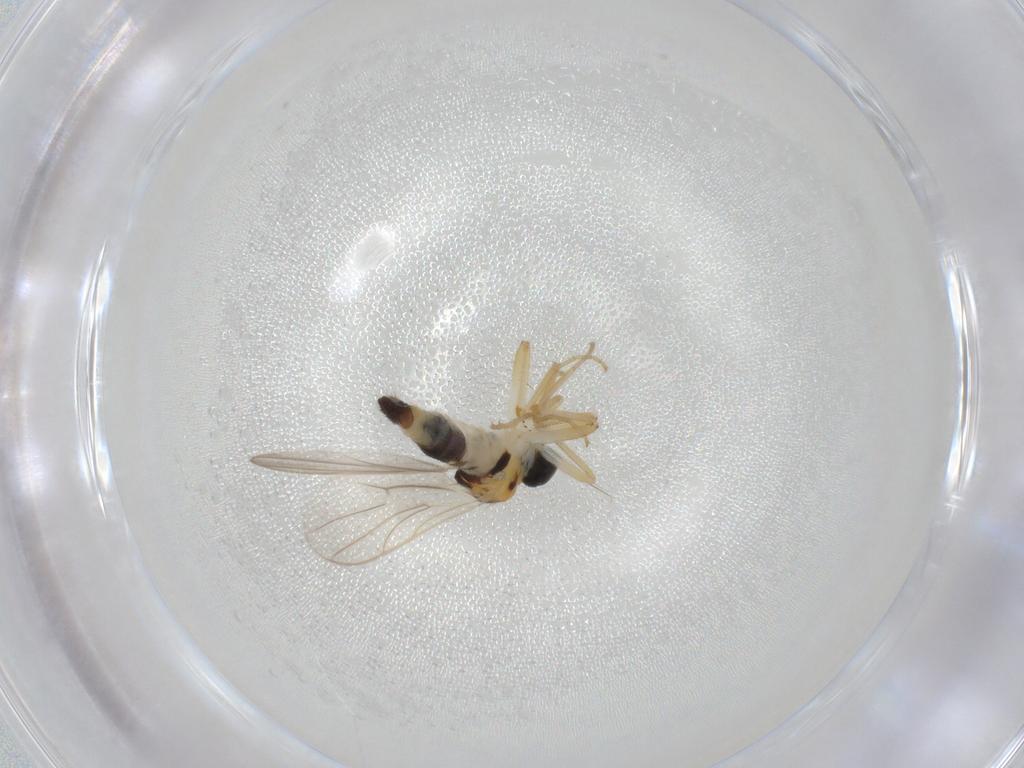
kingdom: Animalia
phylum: Arthropoda
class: Insecta
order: Diptera
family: Hybotidae
